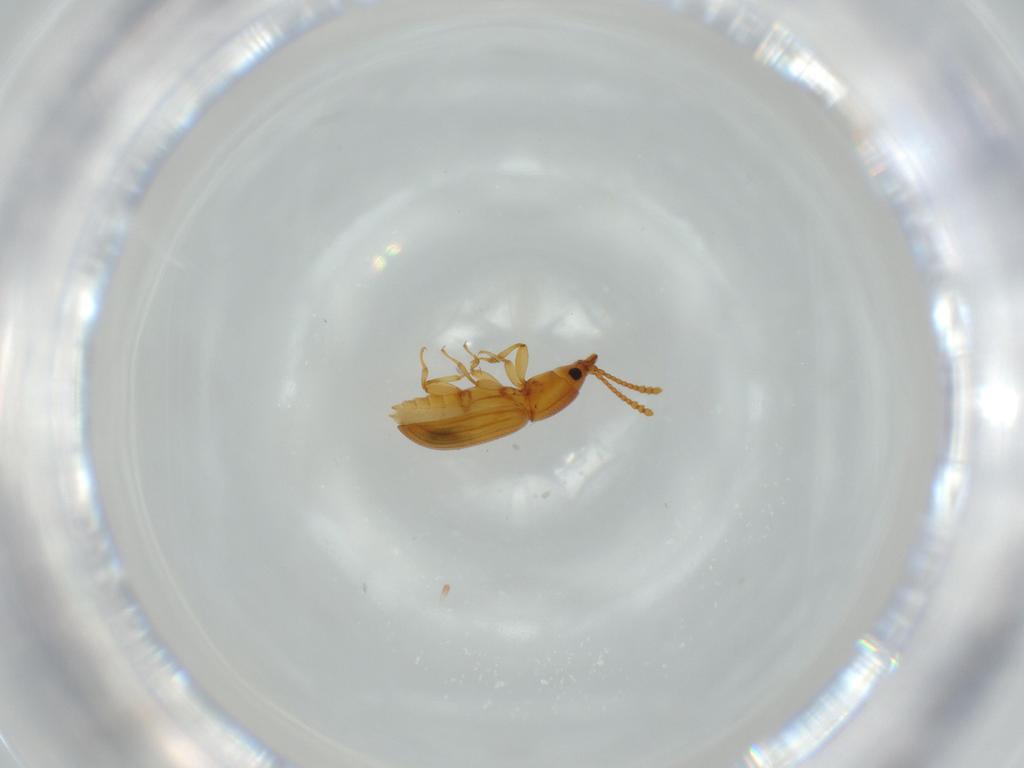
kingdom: Animalia
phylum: Arthropoda
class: Insecta
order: Coleoptera
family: Laemophloeidae
